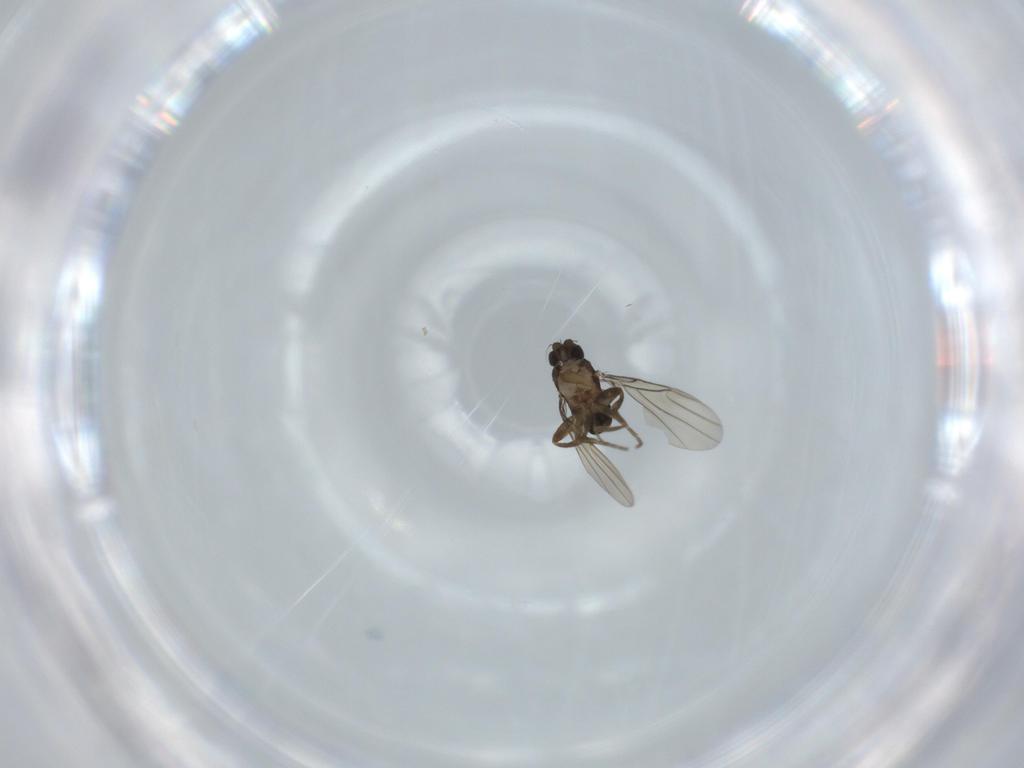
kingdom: Animalia
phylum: Arthropoda
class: Insecta
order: Diptera
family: Phoridae
